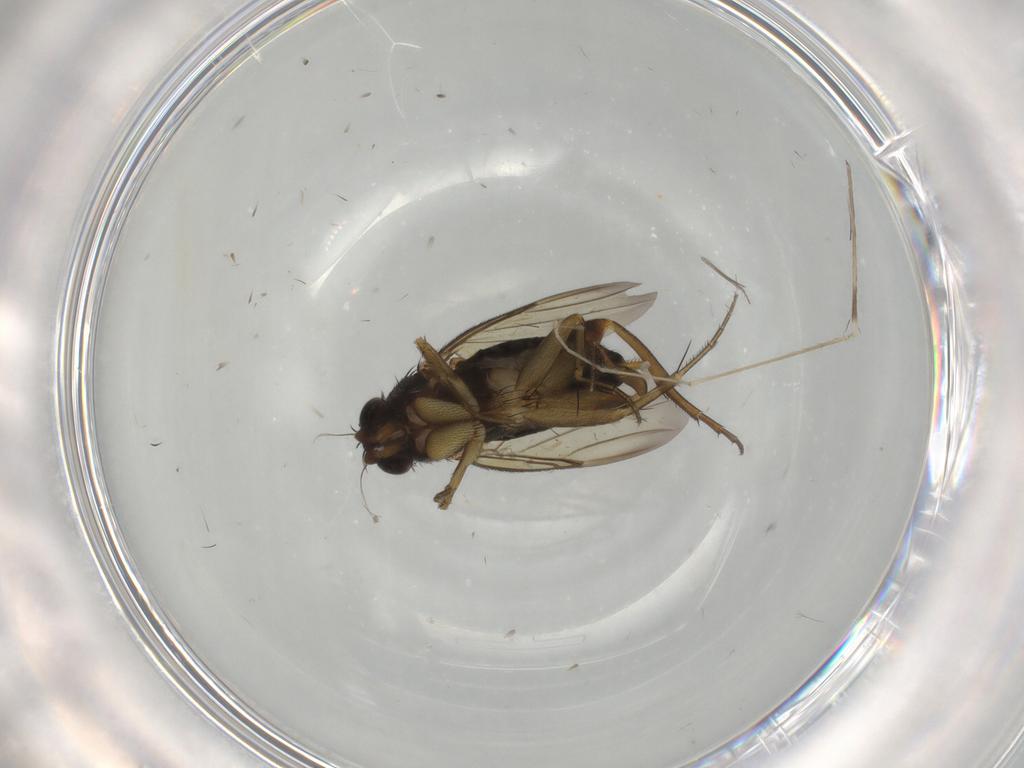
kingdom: Animalia
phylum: Arthropoda
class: Insecta
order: Diptera
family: Phoridae
